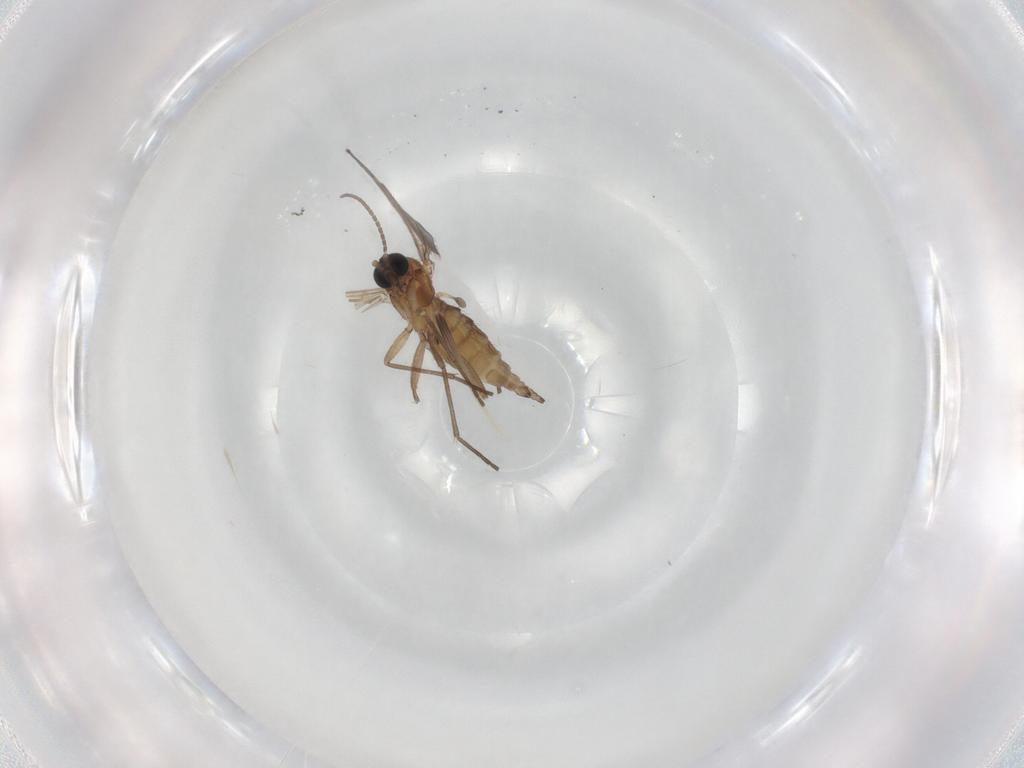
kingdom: Animalia
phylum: Arthropoda
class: Insecta
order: Diptera
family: Sciaridae
